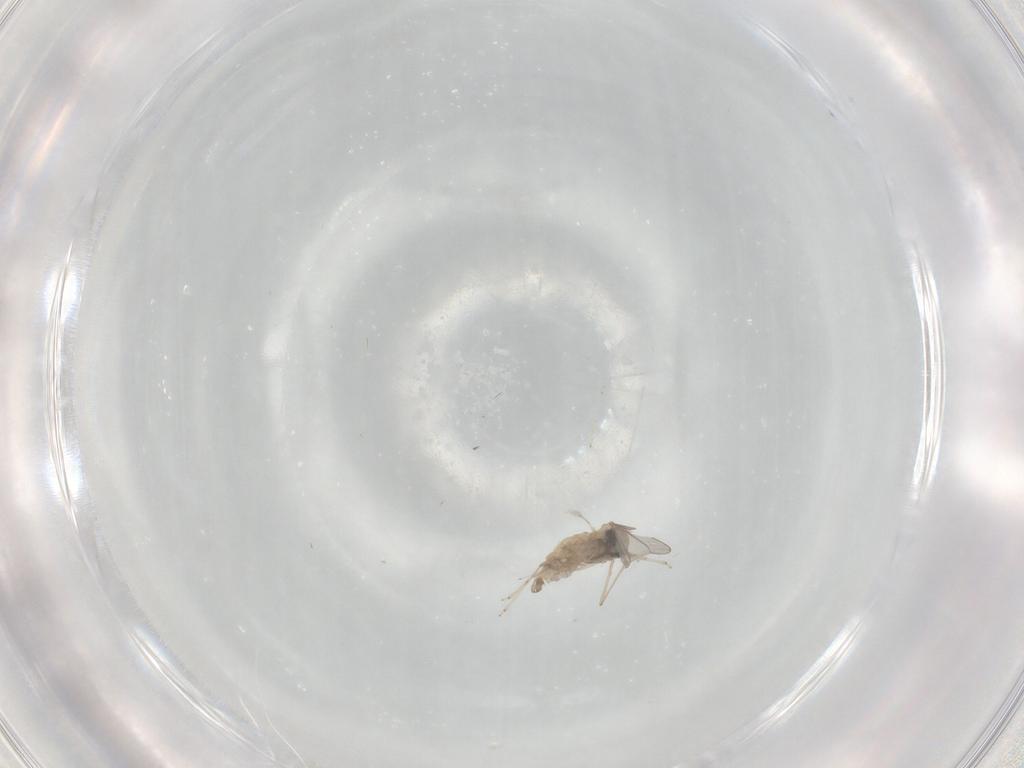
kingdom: Animalia
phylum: Arthropoda
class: Insecta
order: Diptera
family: Cecidomyiidae
